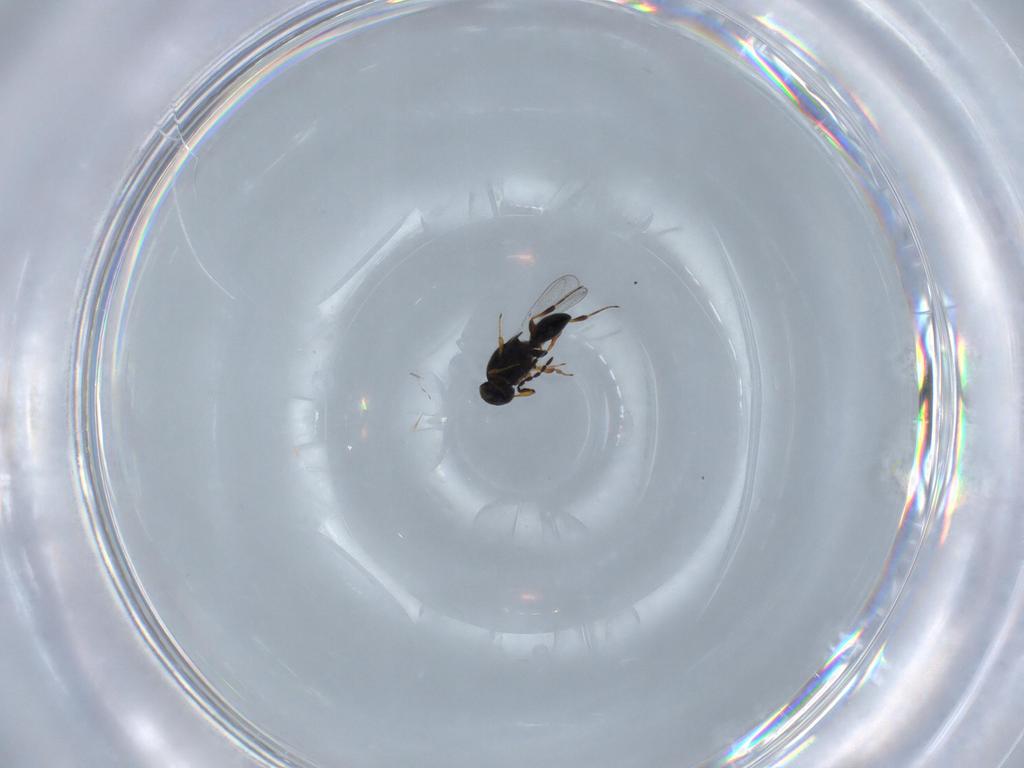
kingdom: Animalia
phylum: Arthropoda
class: Insecta
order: Hymenoptera
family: Platygastridae
